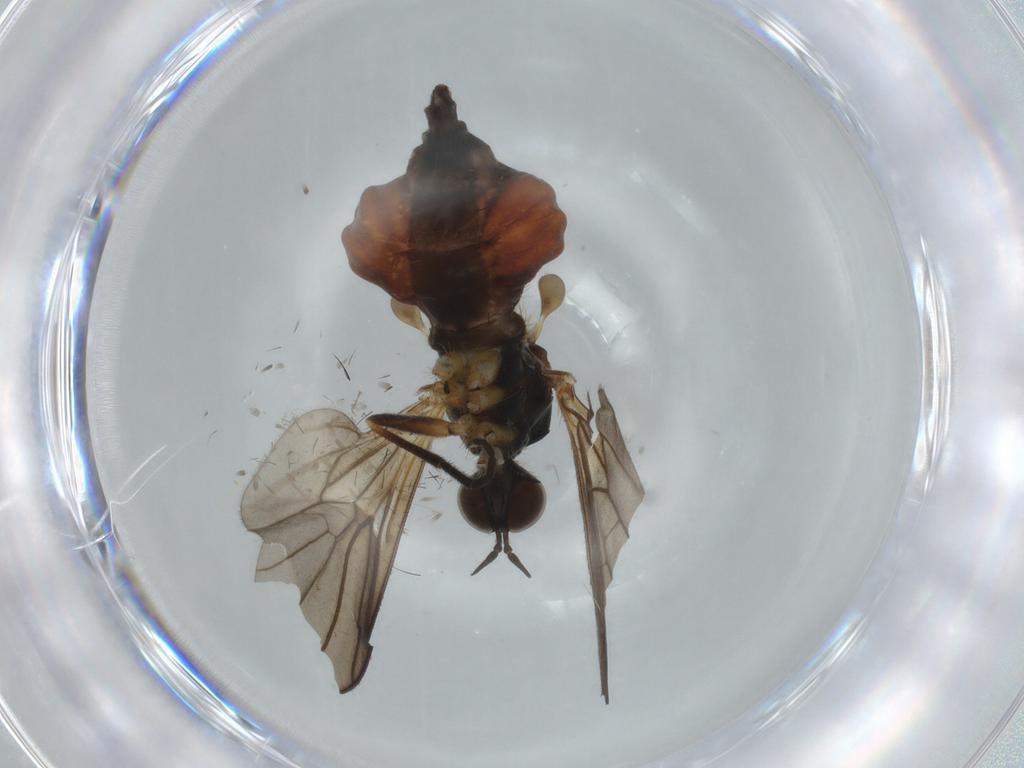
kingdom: Animalia
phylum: Arthropoda
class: Insecta
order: Diptera
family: Empididae
